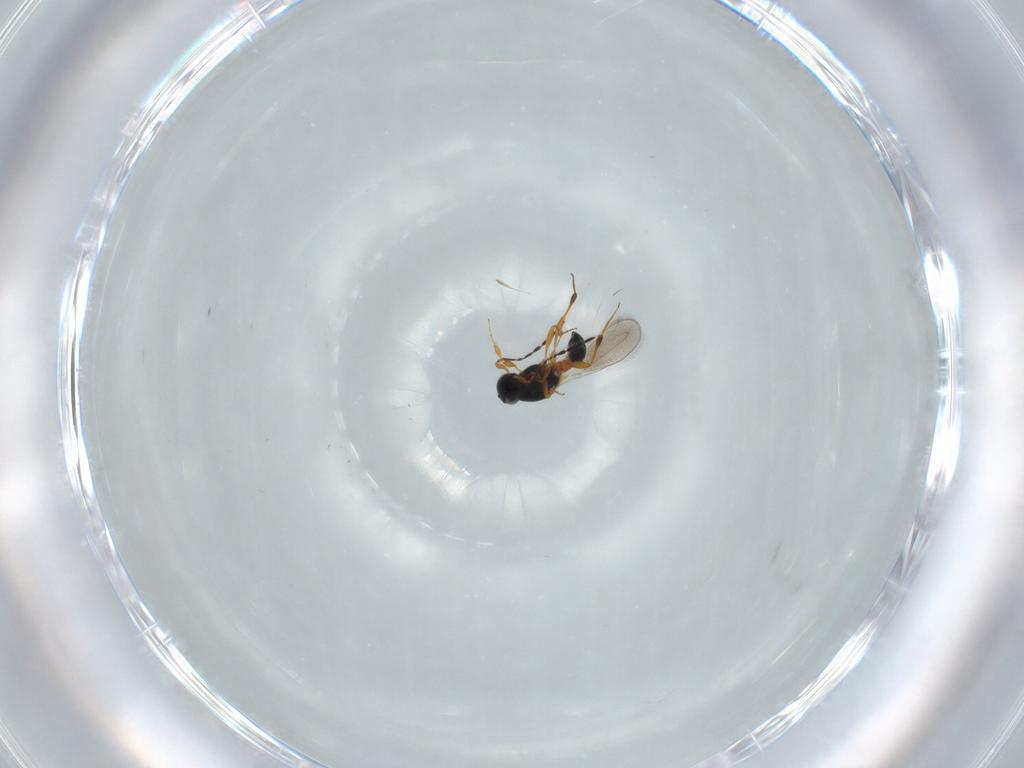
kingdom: Animalia
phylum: Arthropoda
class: Insecta
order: Hymenoptera
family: Platygastridae
